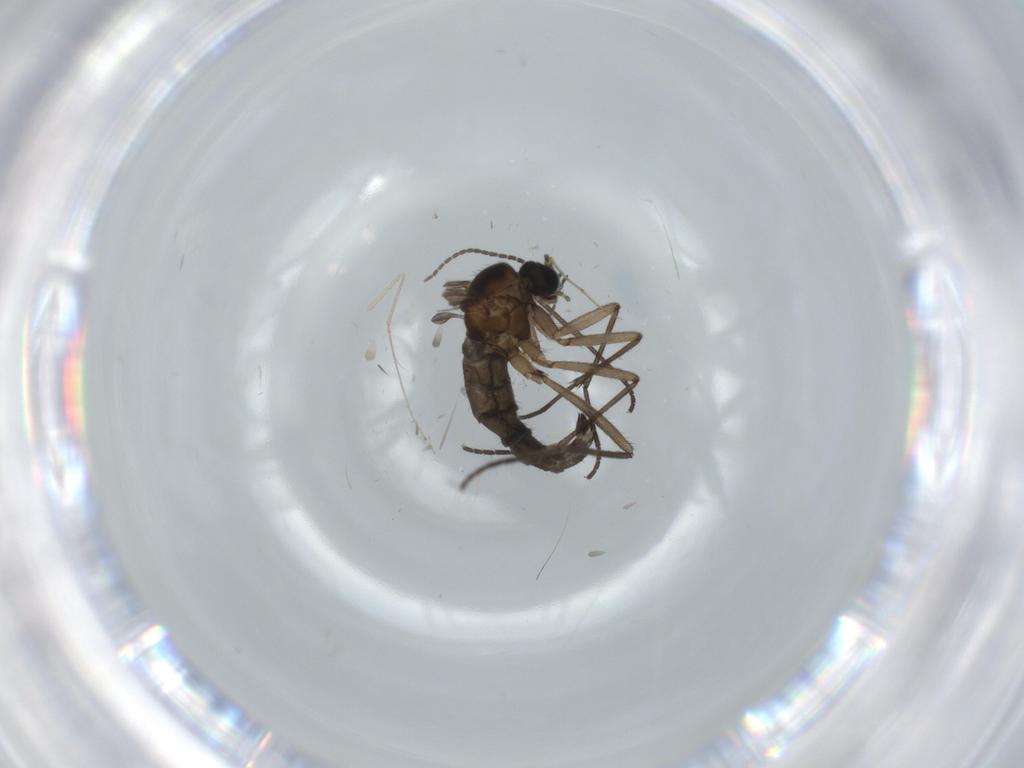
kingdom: Animalia
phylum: Arthropoda
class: Insecta
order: Diptera
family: Cecidomyiidae
